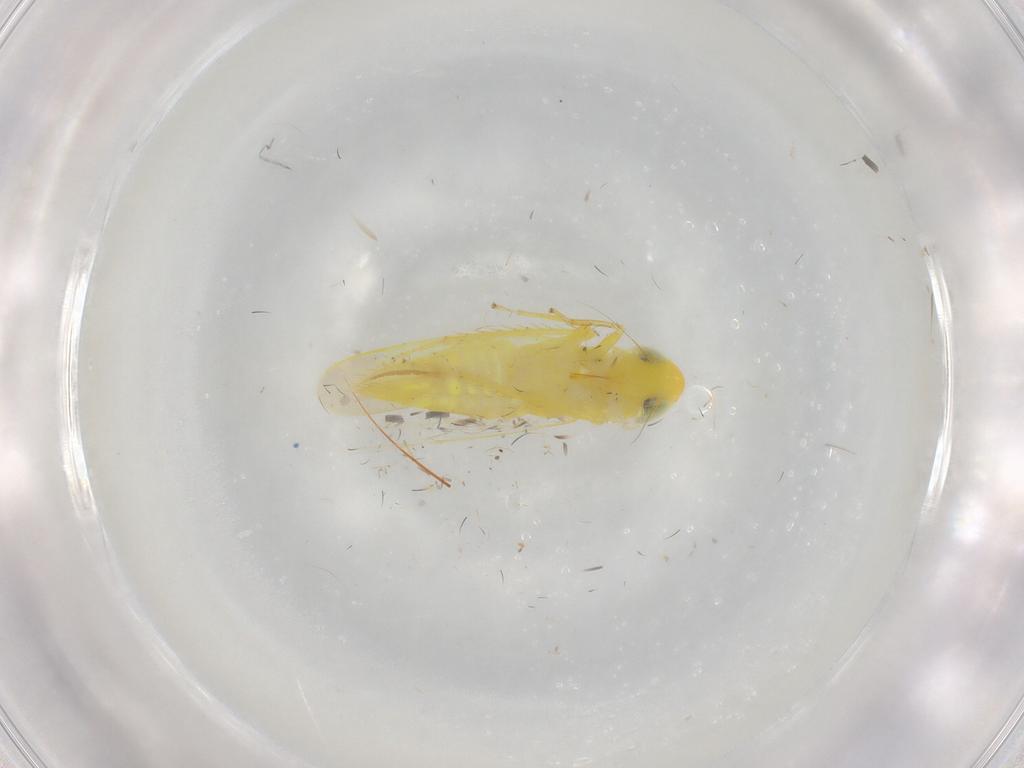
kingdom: Animalia
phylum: Arthropoda
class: Insecta
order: Hemiptera
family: Cicadellidae
